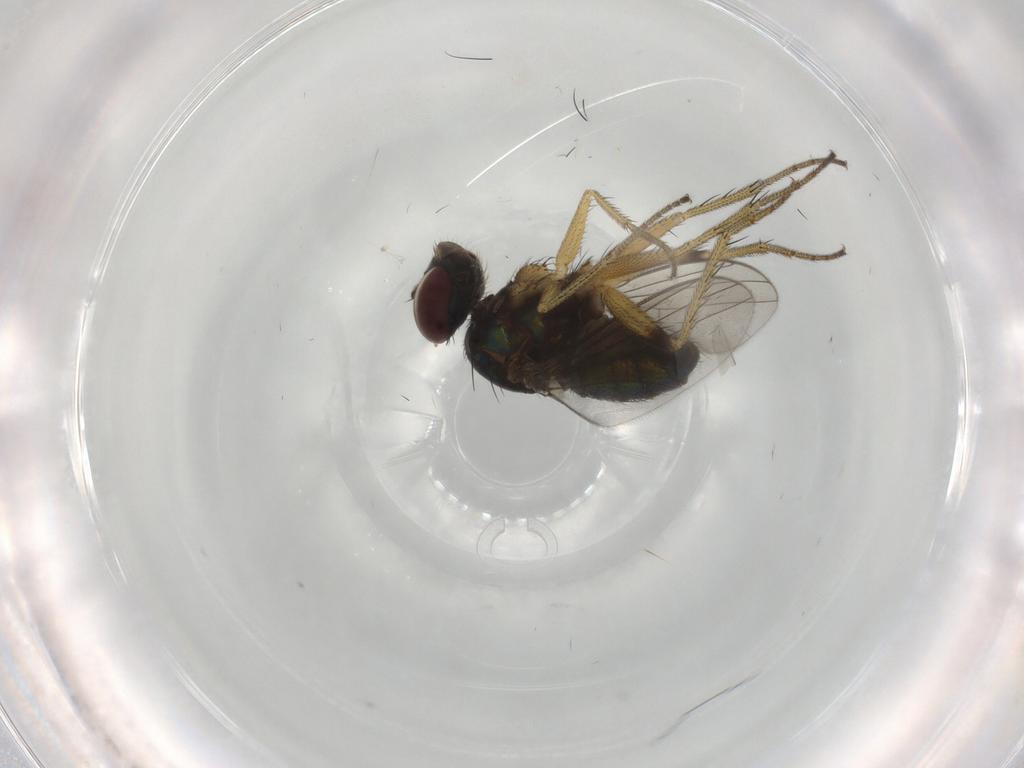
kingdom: Animalia
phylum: Arthropoda
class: Insecta
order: Diptera
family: Dolichopodidae
